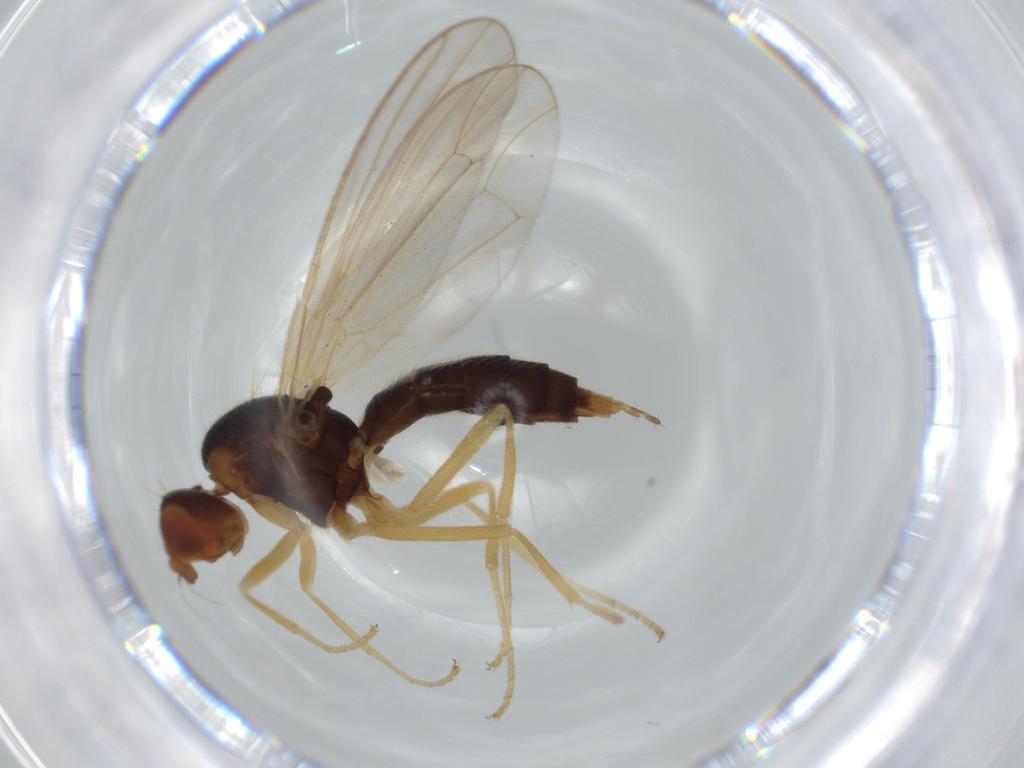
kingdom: Animalia
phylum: Arthropoda
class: Insecta
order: Diptera
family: Psilidae
